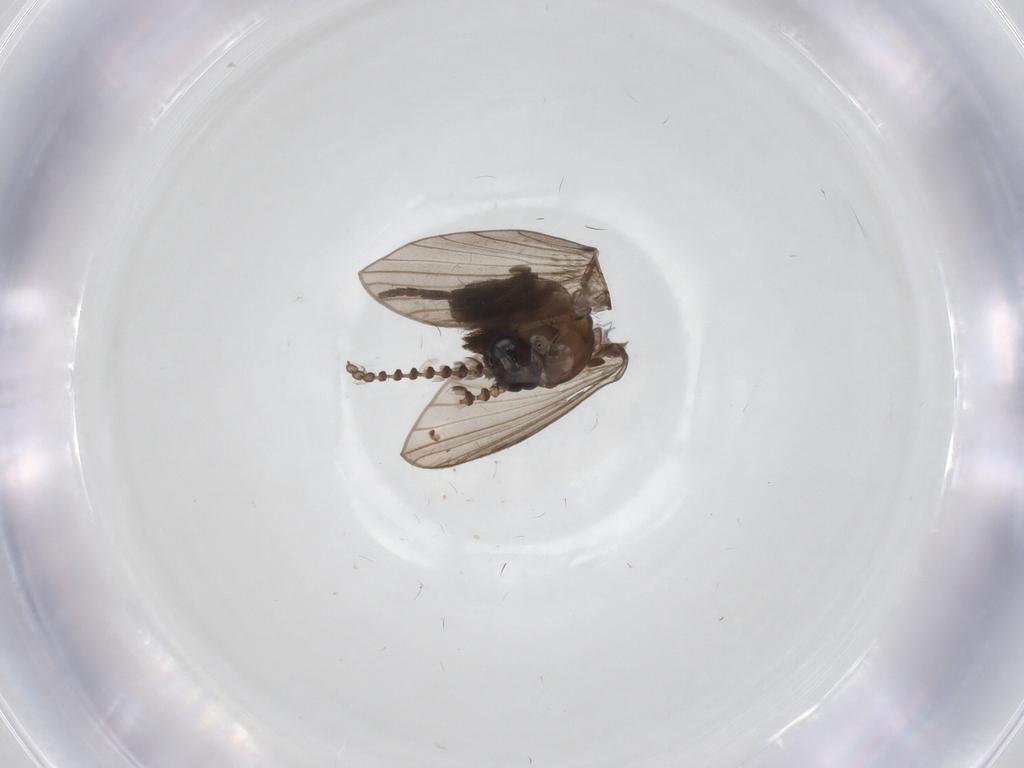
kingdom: Animalia
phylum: Arthropoda
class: Insecta
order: Diptera
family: Psychodidae
